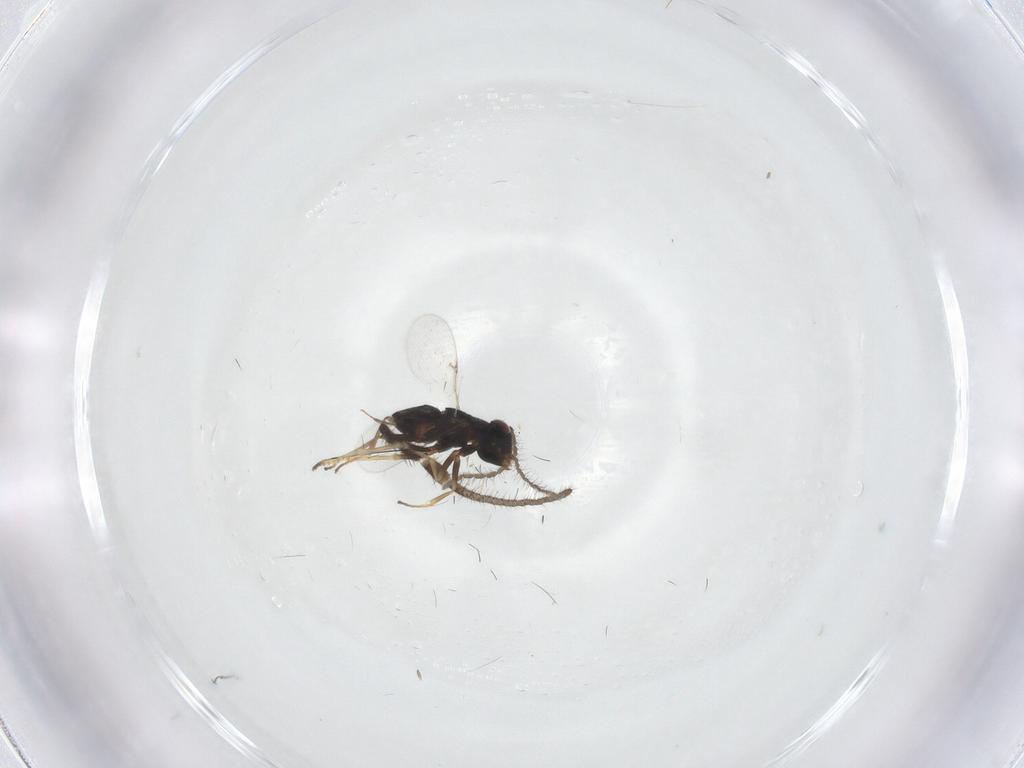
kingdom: Animalia
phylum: Arthropoda
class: Insecta
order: Hymenoptera
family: Encyrtidae
